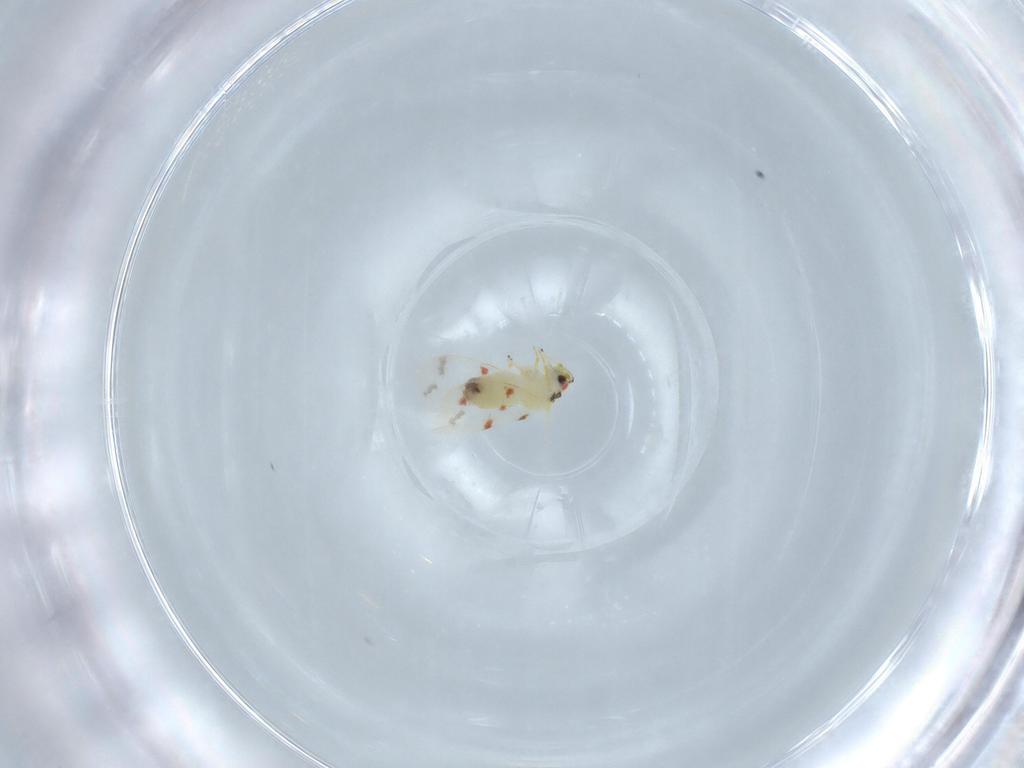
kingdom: Animalia
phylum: Arthropoda
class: Insecta
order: Hemiptera
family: Aleyrodidae
